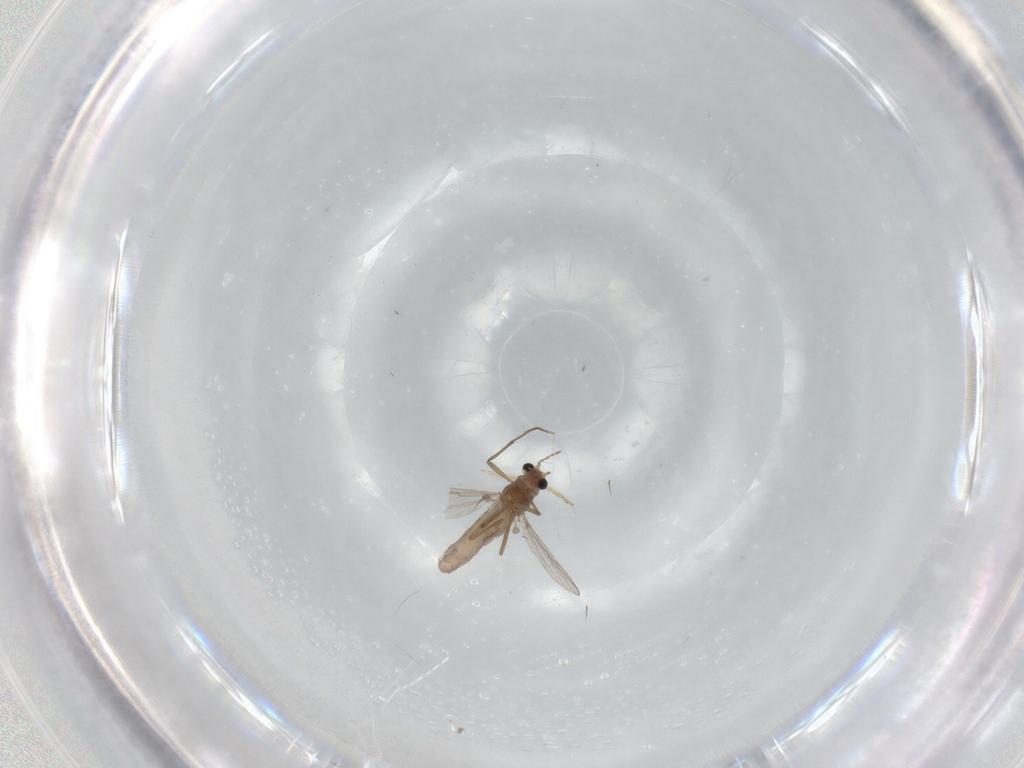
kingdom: Animalia
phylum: Arthropoda
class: Insecta
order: Diptera
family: Chironomidae
